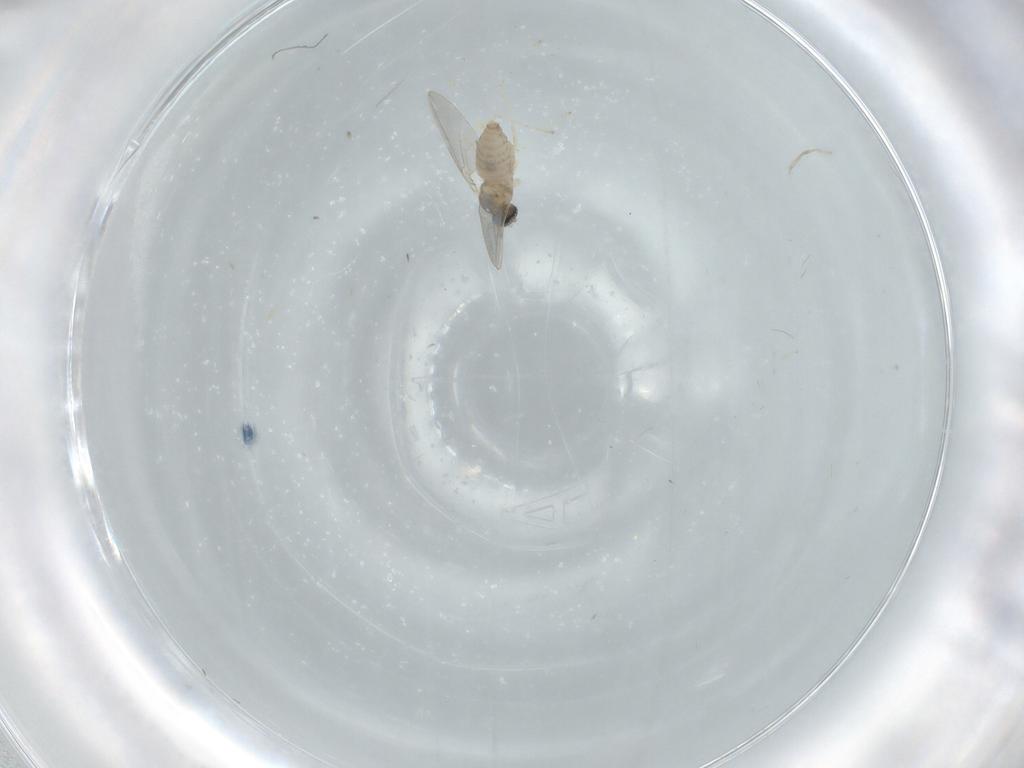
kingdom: Animalia
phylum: Arthropoda
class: Insecta
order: Diptera
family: Cecidomyiidae
